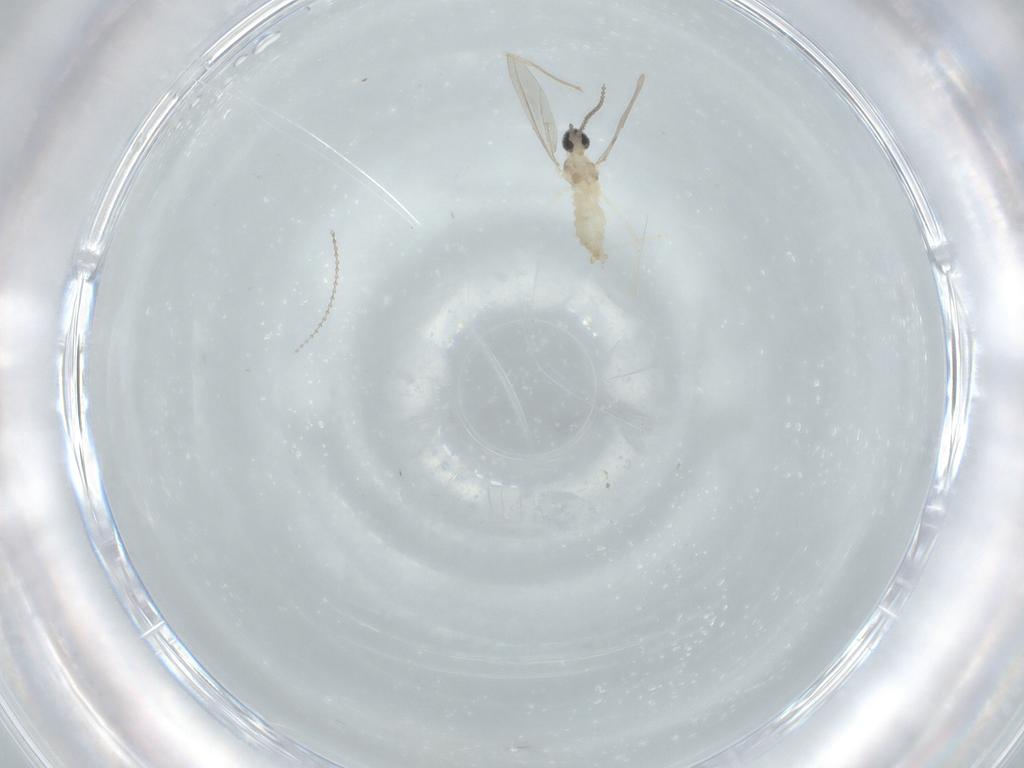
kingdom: Animalia
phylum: Arthropoda
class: Insecta
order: Diptera
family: Cecidomyiidae
